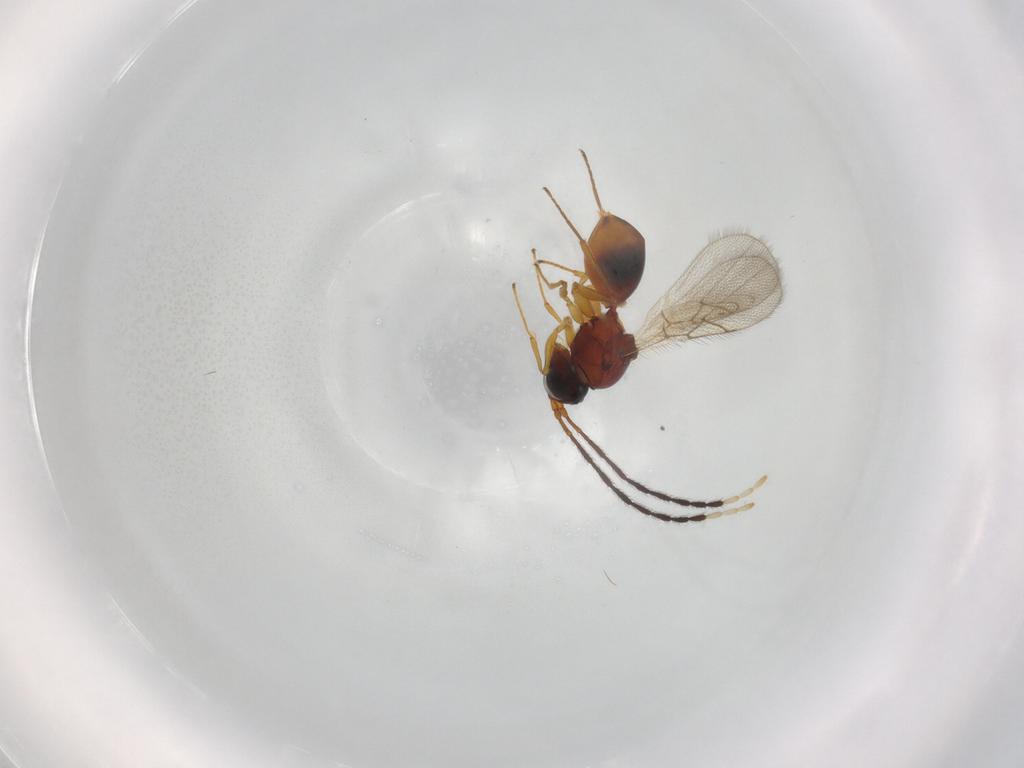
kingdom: Animalia
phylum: Arthropoda
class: Insecta
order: Hymenoptera
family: Figitidae
